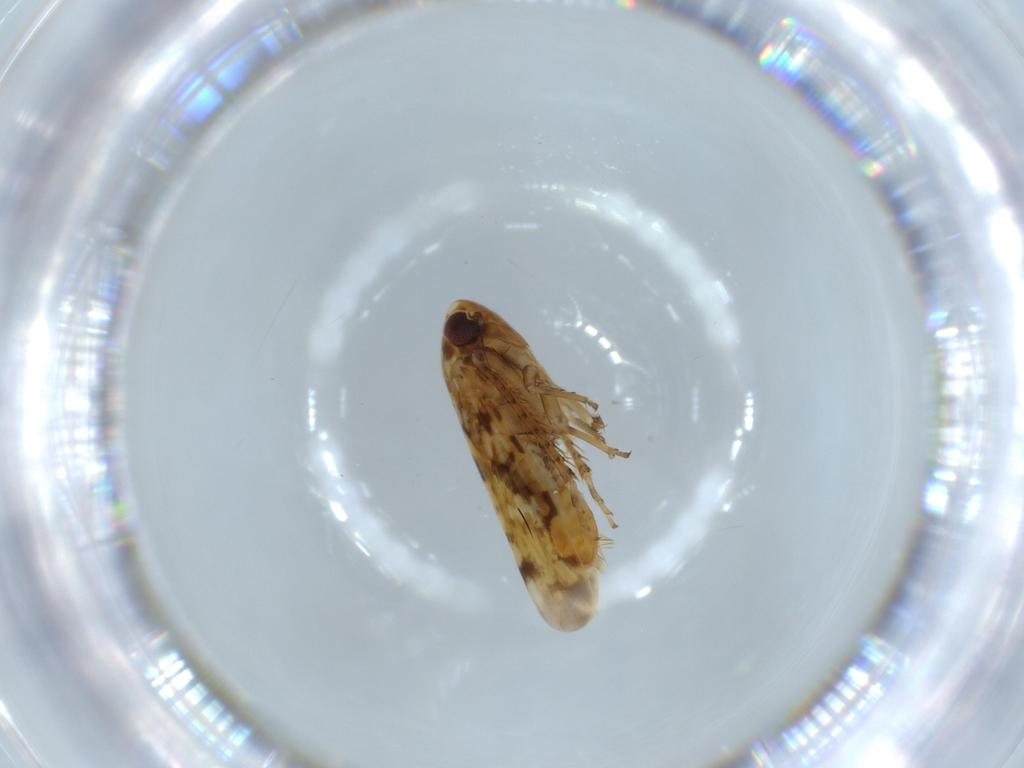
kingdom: Animalia
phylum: Arthropoda
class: Insecta
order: Hemiptera
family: Cicadellidae
